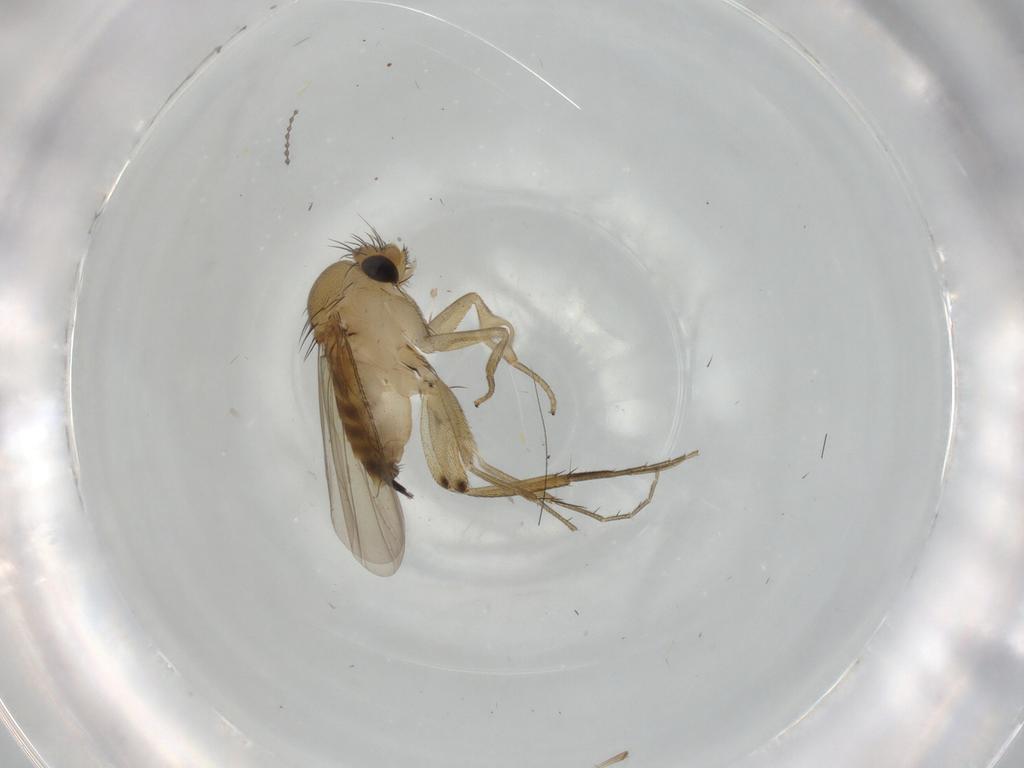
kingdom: Animalia
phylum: Arthropoda
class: Insecta
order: Diptera
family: Phoridae
